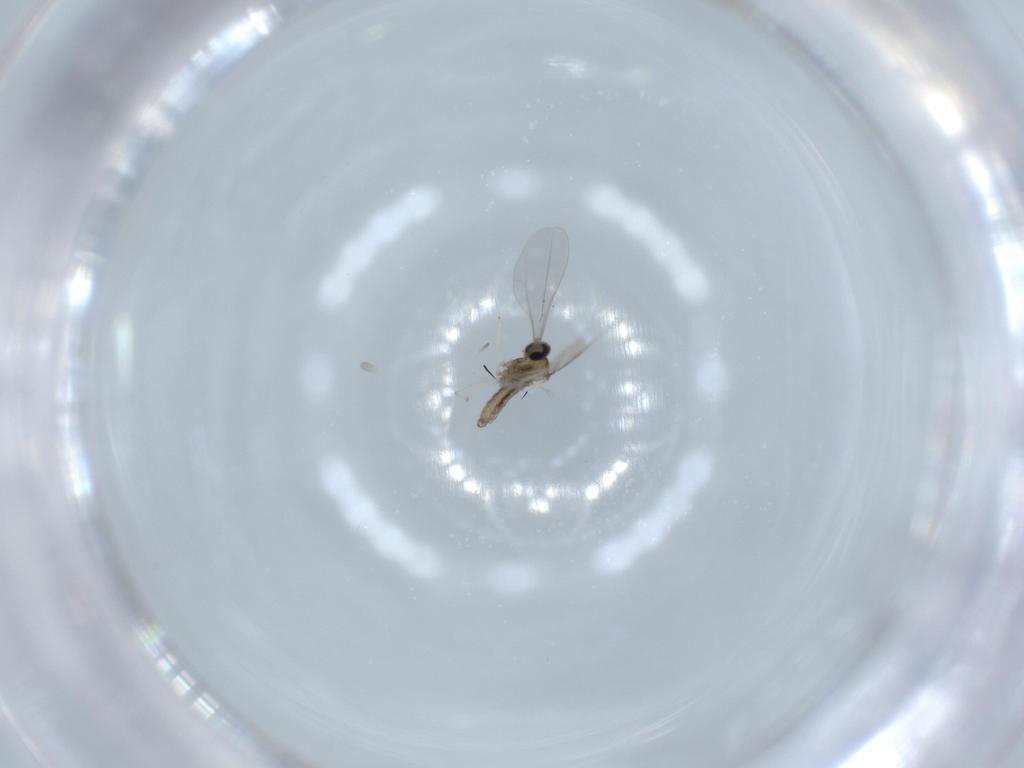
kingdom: Animalia
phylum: Arthropoda
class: Insecta
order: Diptera
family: Cecidomyiidae
